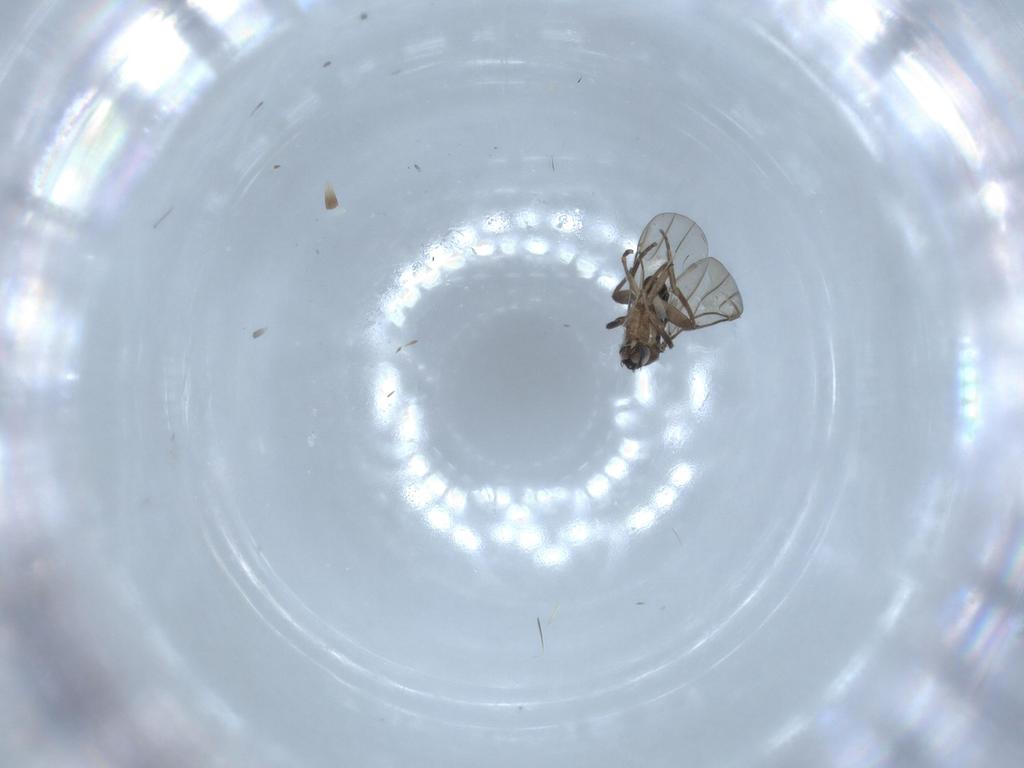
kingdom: Animalia
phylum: Arthropoda
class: Insecta
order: Diptera
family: Phoridae
